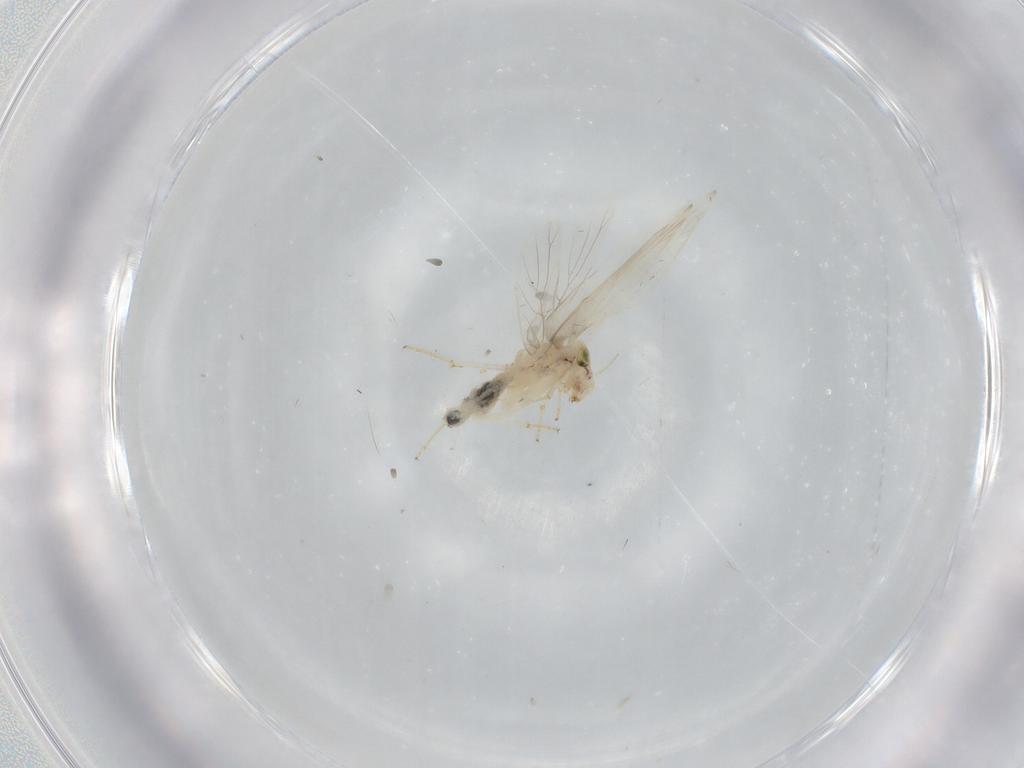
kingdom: Animalia
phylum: Arthropoda
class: Insecta
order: Psocodea
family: Lepidopsocidae
